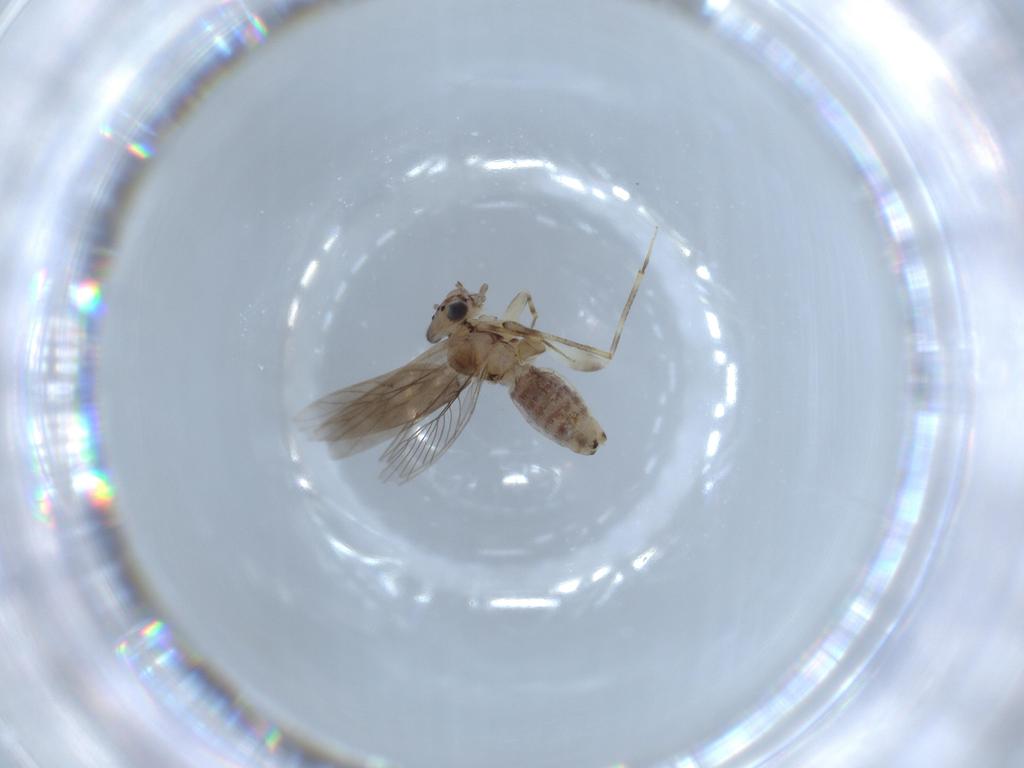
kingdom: Animalia
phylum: Arthropoda
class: Insecta
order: Psocodea
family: Lepidopsocidae
